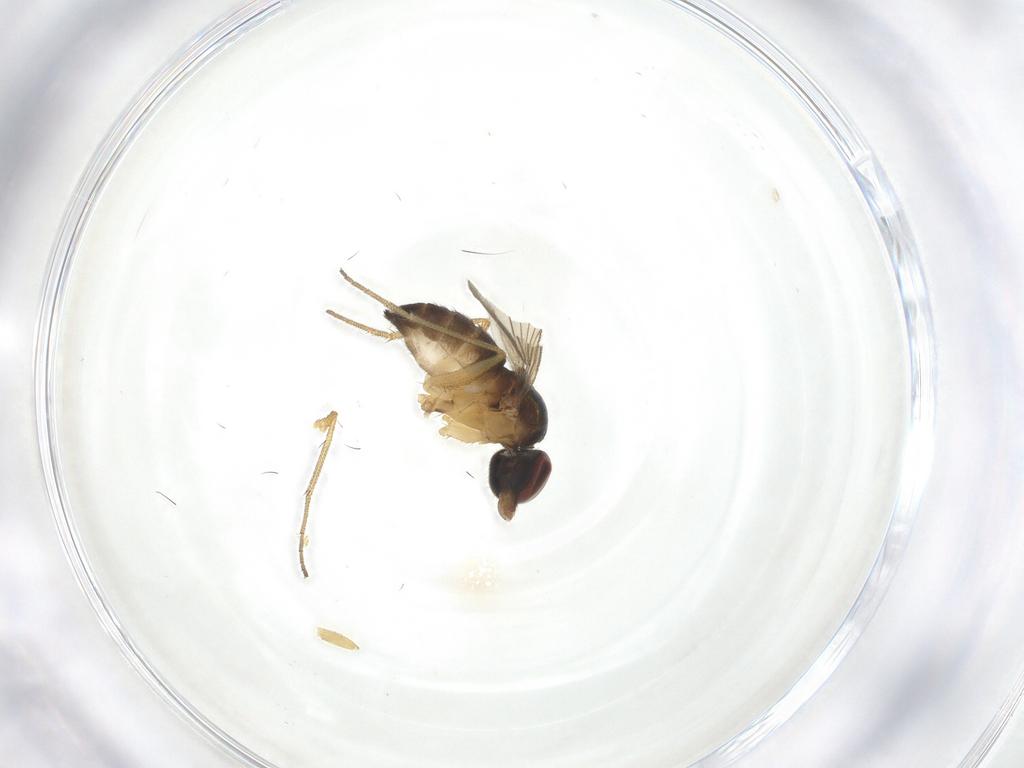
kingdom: Animalia
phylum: Arthropoda
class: Insecta
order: Diptera
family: Dolichopodidae
